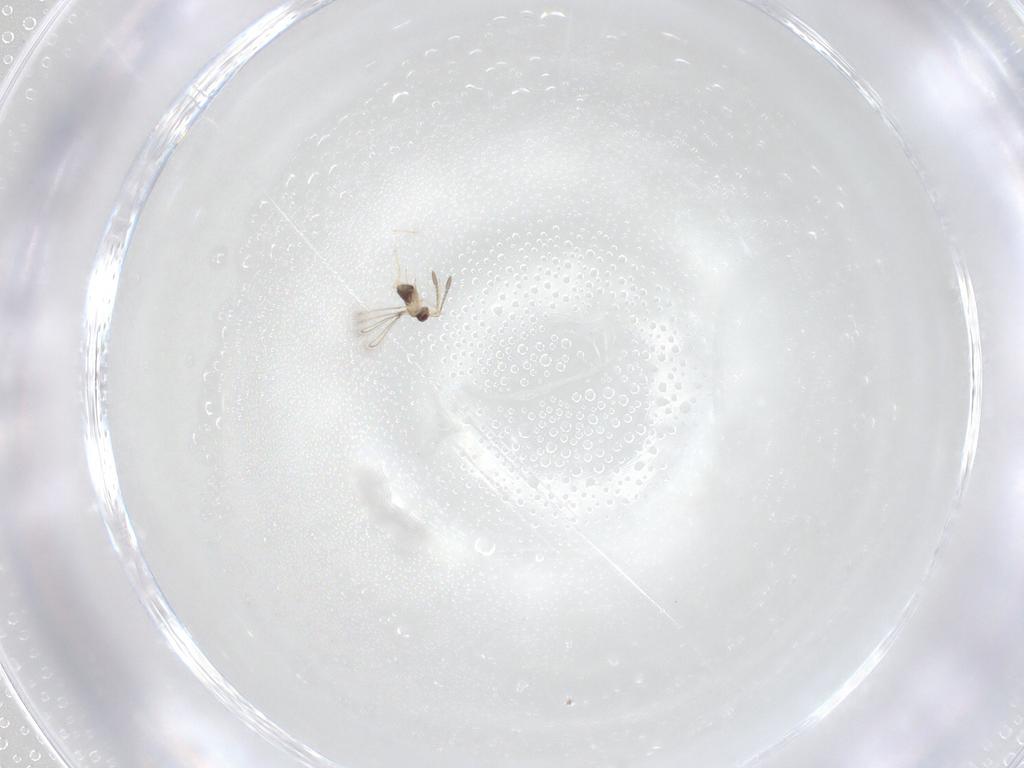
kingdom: Animalia
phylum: Arthropoda
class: Insecta
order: Hymenoptera
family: Mymaridae
